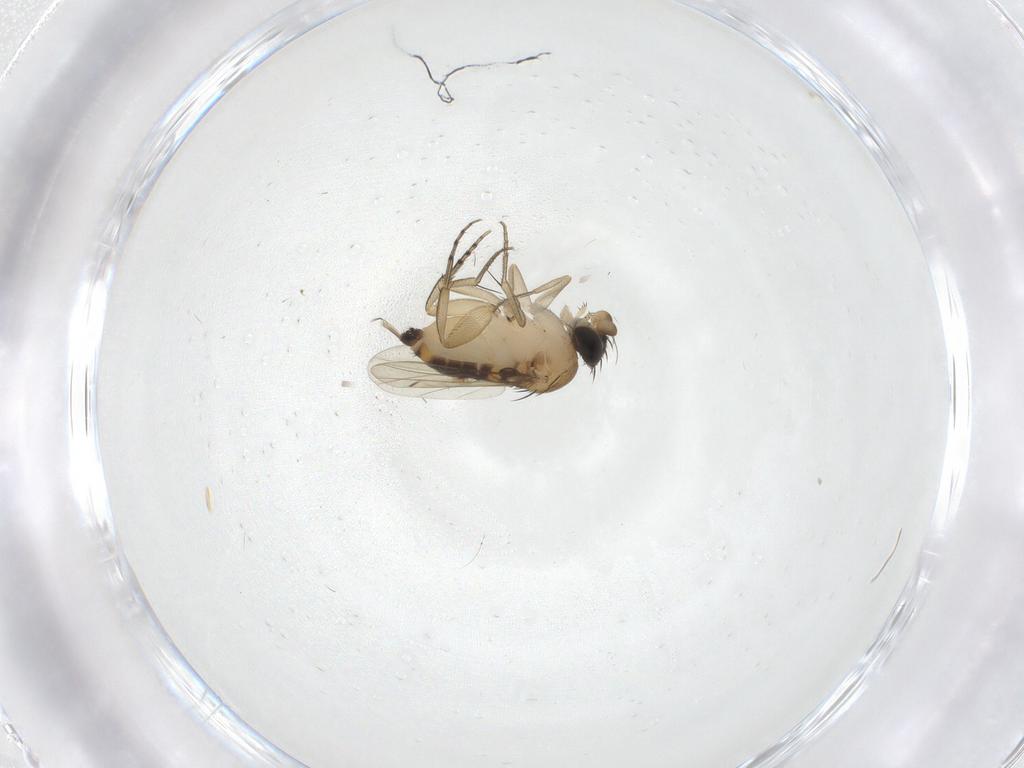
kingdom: Animalia
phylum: Arthropoda
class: Insecta
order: Diptera
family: Phoridae
